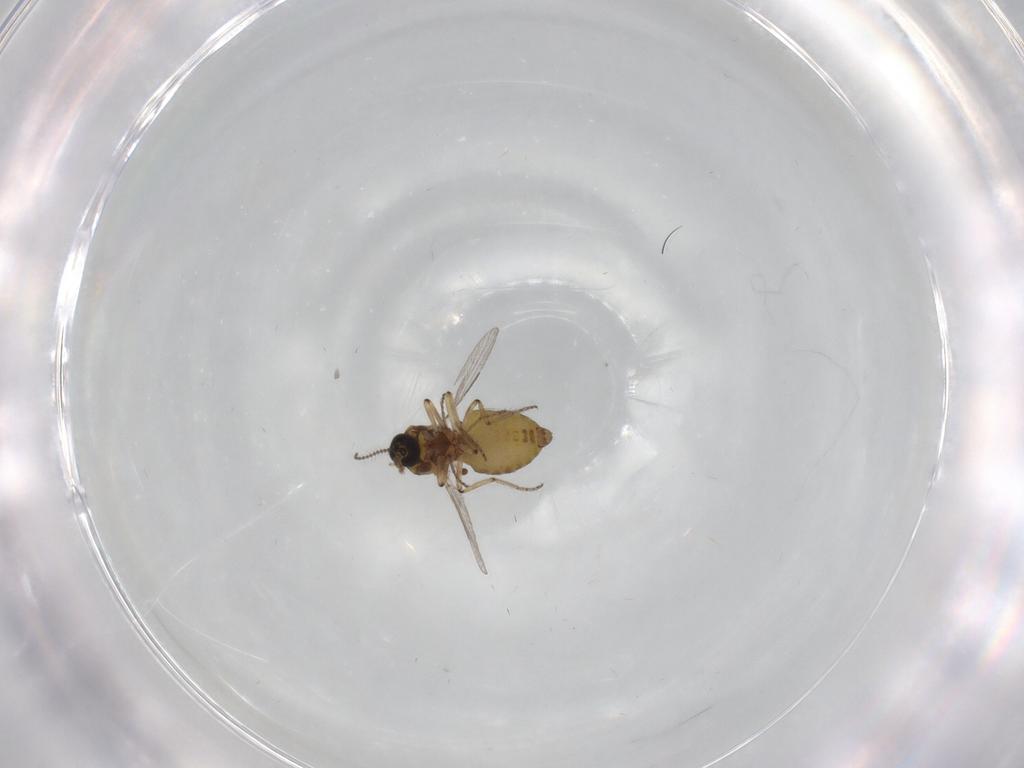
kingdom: Animalia
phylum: Arthropoda
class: Insecta
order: Diptera
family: Ceratopogonidae
